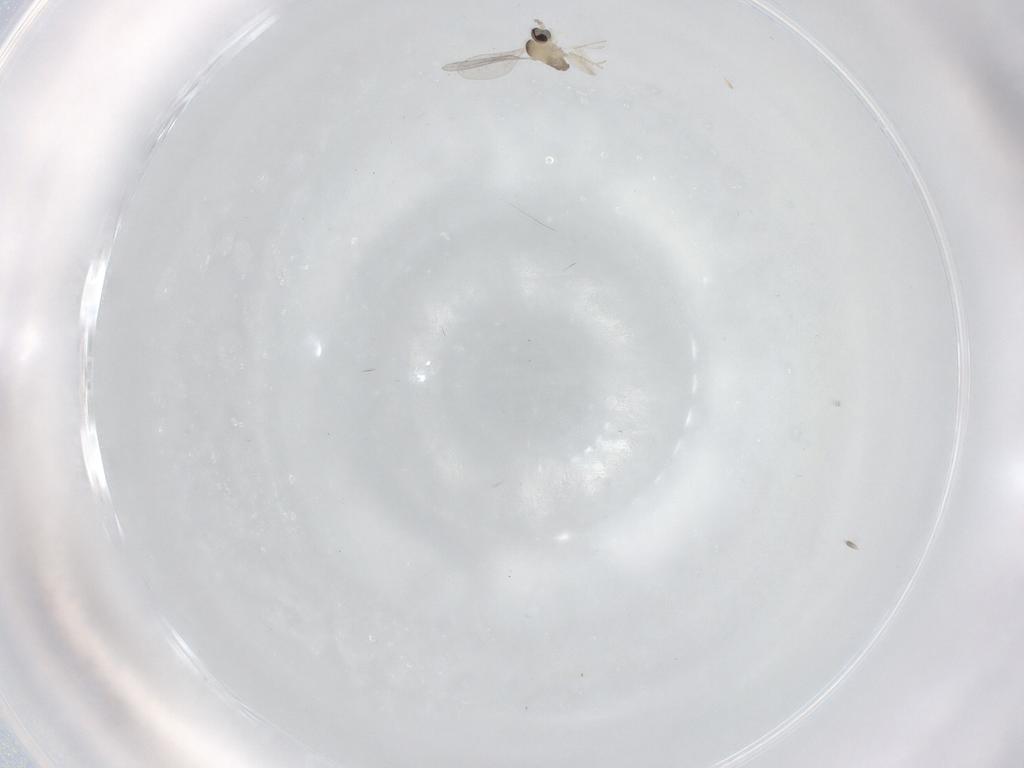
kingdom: Animalia
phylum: Arthropoda
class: Insecta
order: Diptera
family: Cecidomyiidae
